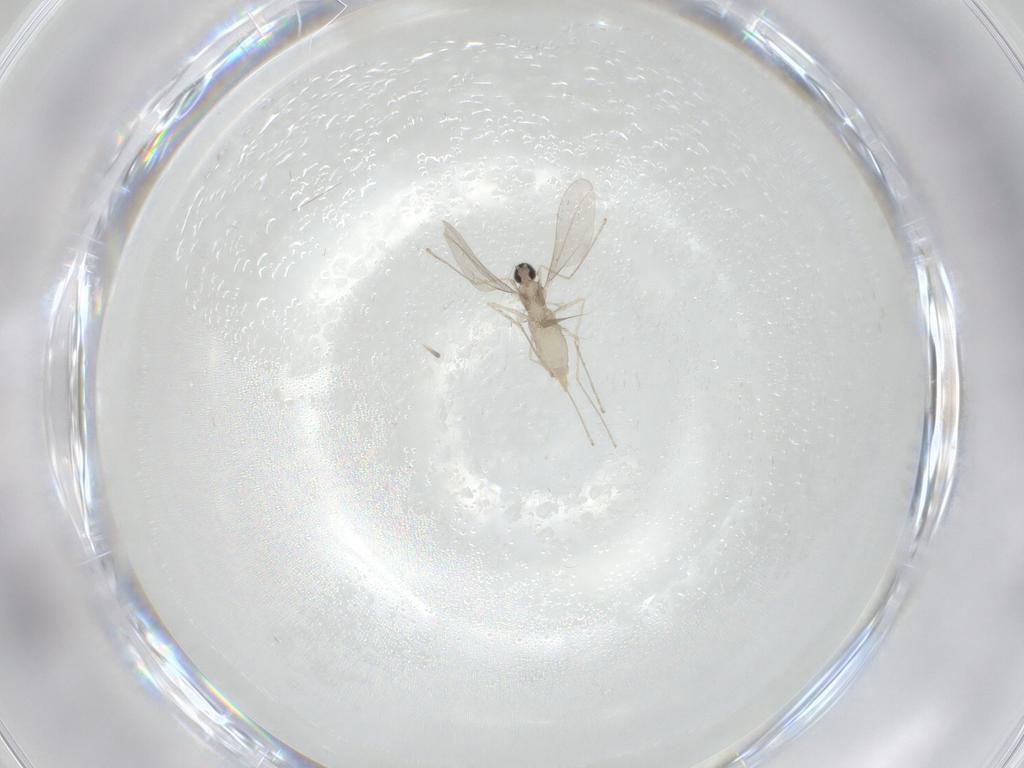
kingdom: Animalia
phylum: Arthropoda
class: Insecta
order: Diptera
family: Cecidomyiidae
